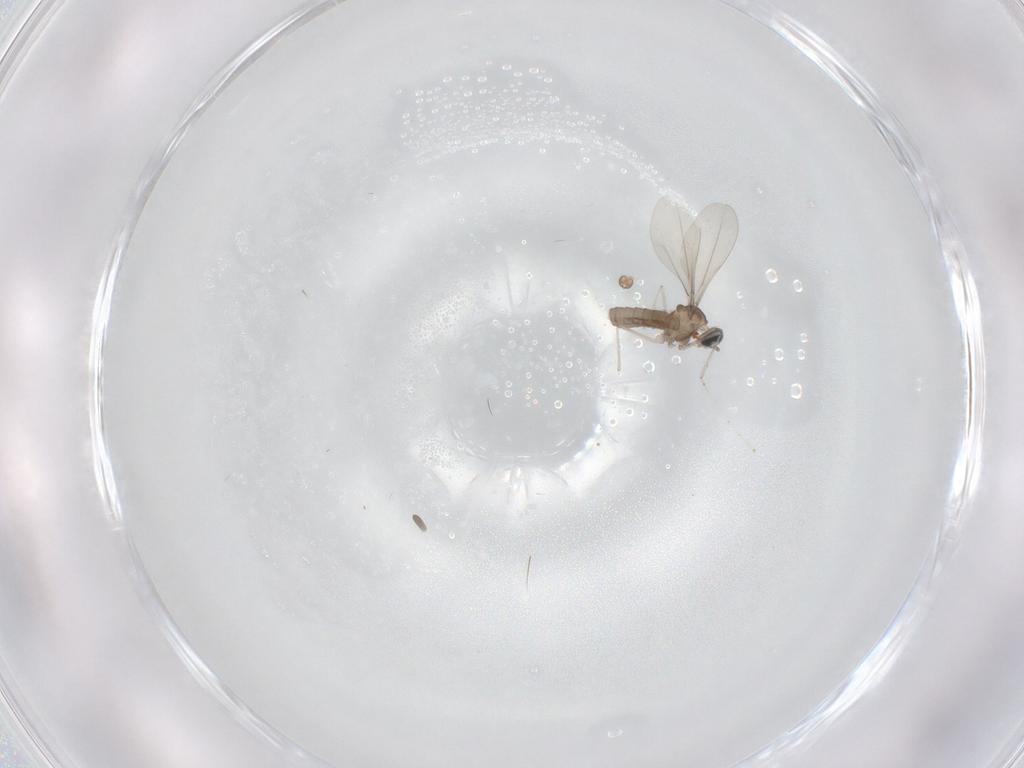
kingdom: Animalia
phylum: Arthropoda
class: Insecta
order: Diptera
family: Cecidomyiidae
